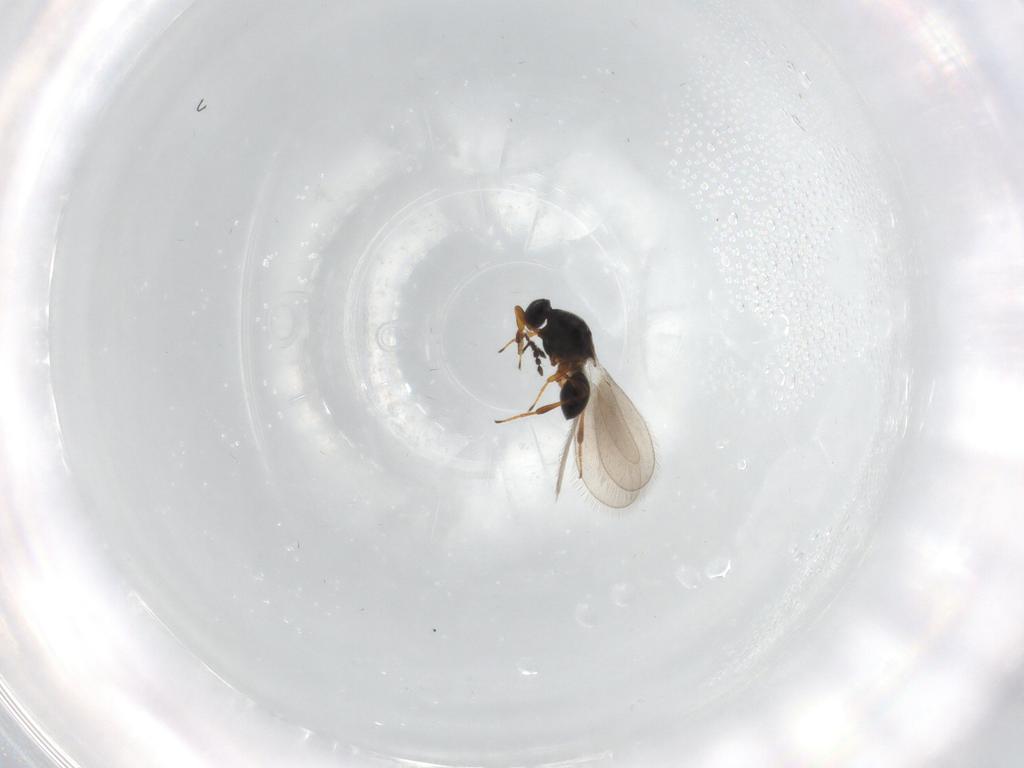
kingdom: Animalia
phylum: Arthropoda
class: Insecta
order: Hymenoptera
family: Platygastridae
